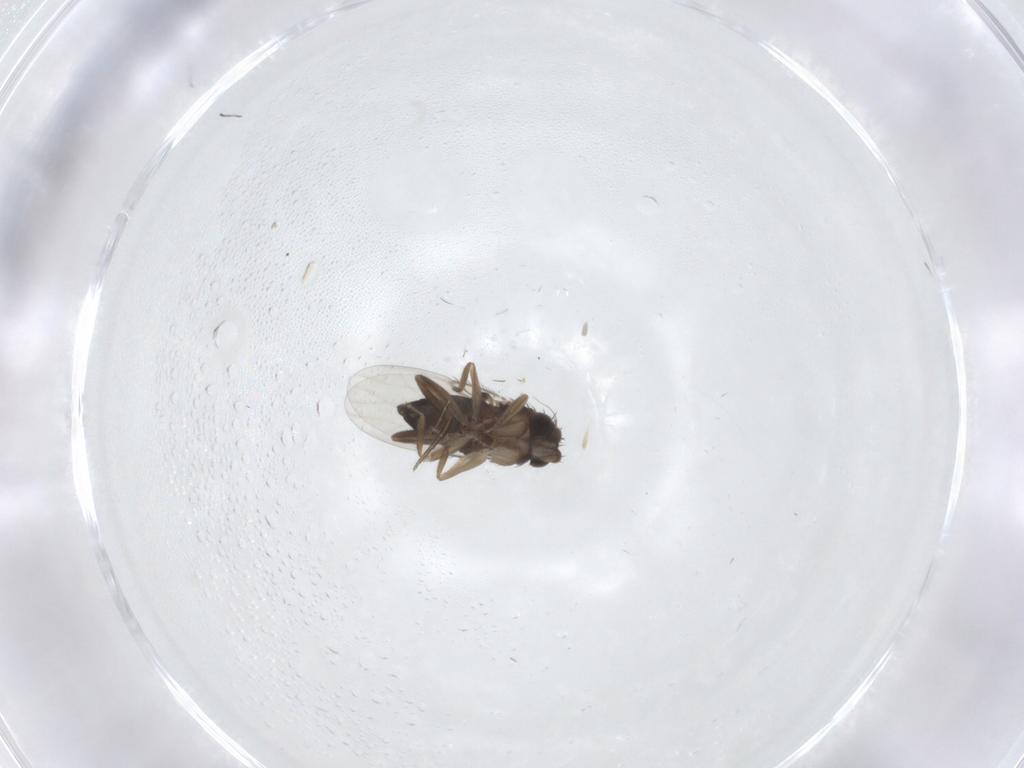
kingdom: Animalia
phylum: Arthropoda
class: Insecta
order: Diptera
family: Phoridae
